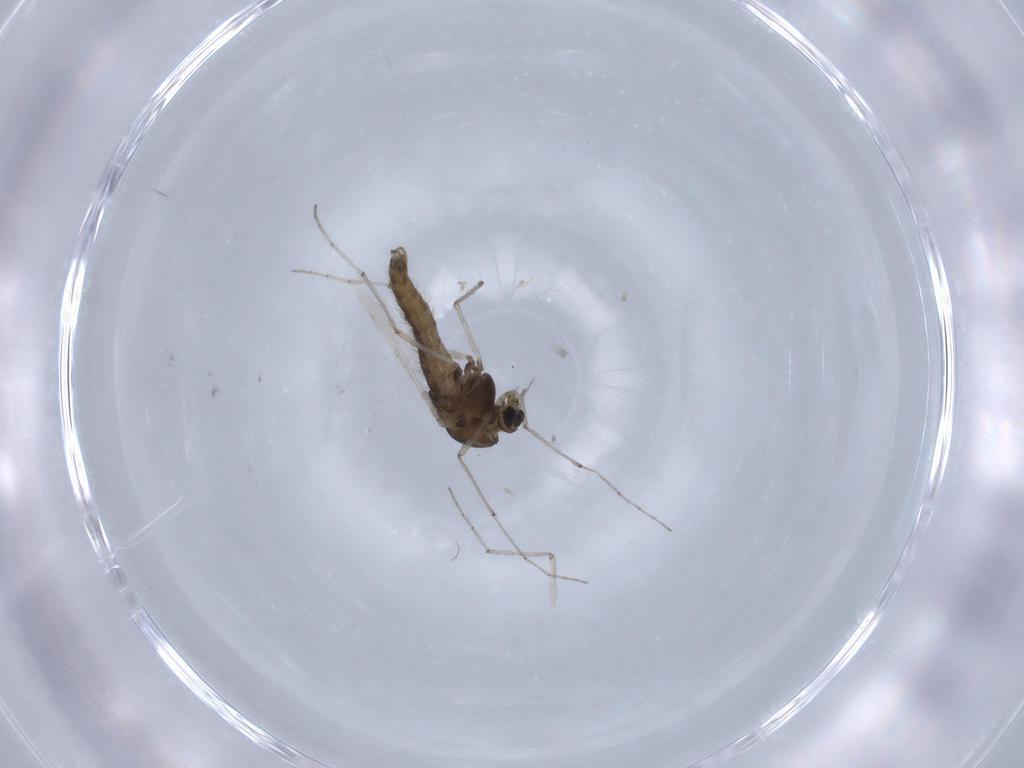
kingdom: Animalia
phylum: Arthropoda
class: Insecta
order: Diptera
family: Chironomidae
